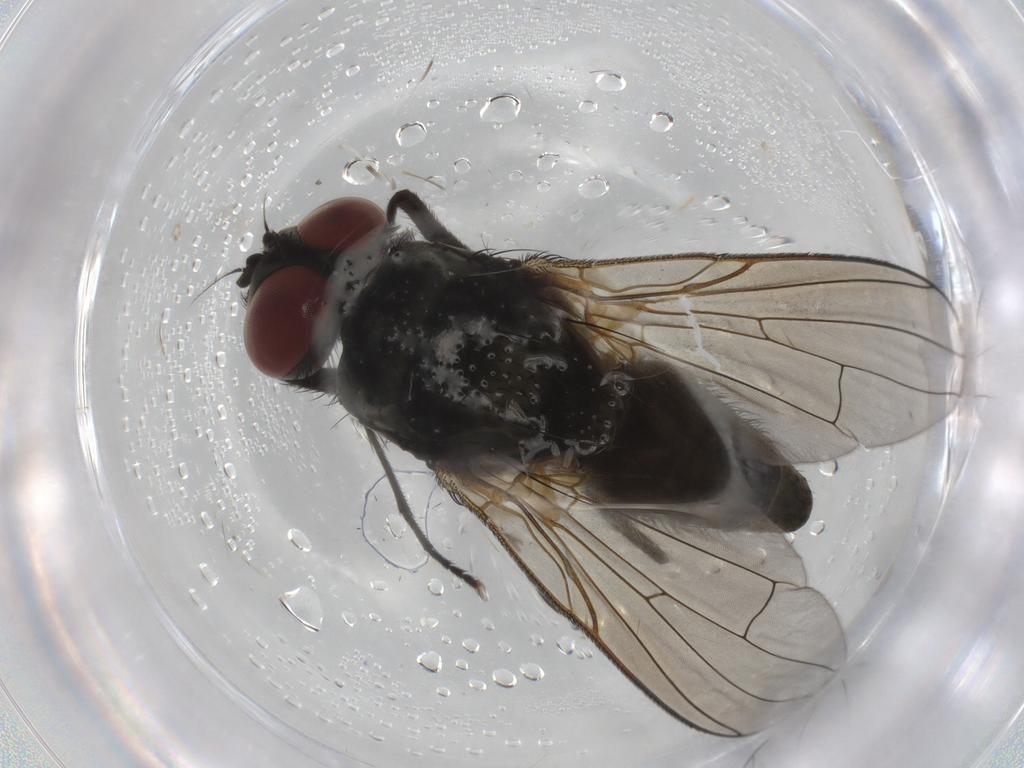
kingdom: Animalia
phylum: Arthropoda
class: Insecta
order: Diptera
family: Muscidae
